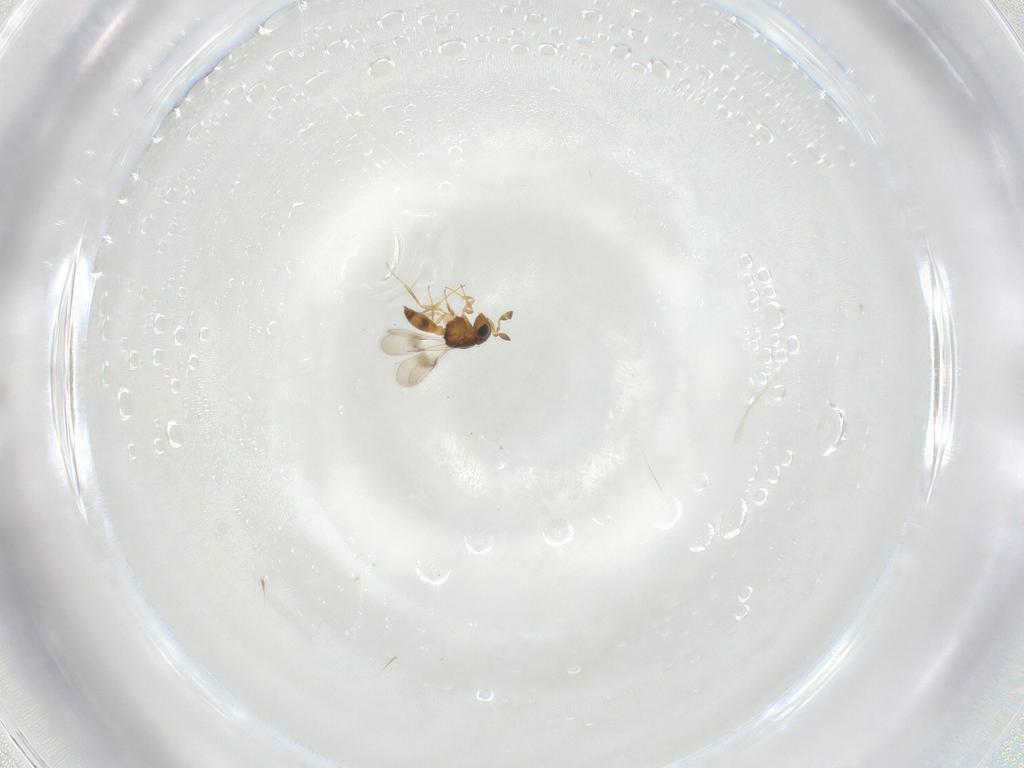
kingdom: Animalia
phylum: Arthropoda
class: Insecta
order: Hymenoptera
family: Scelionidae
